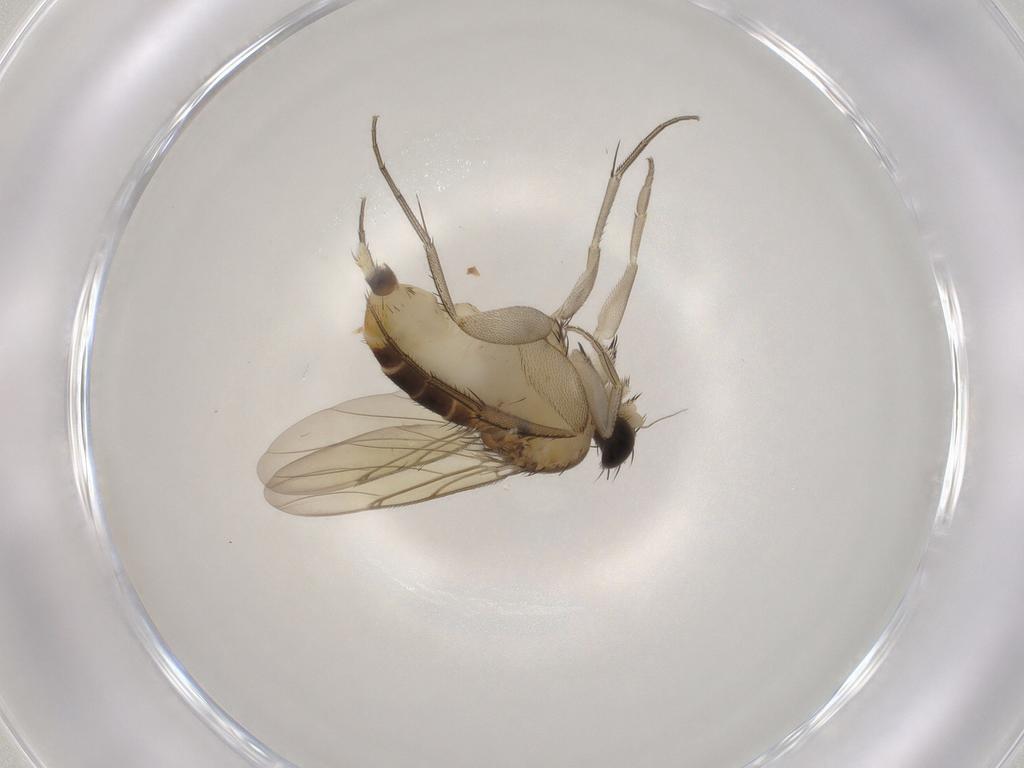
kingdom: Animalia
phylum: Arthropoda
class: Insecta
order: Diptera
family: Phoridae
